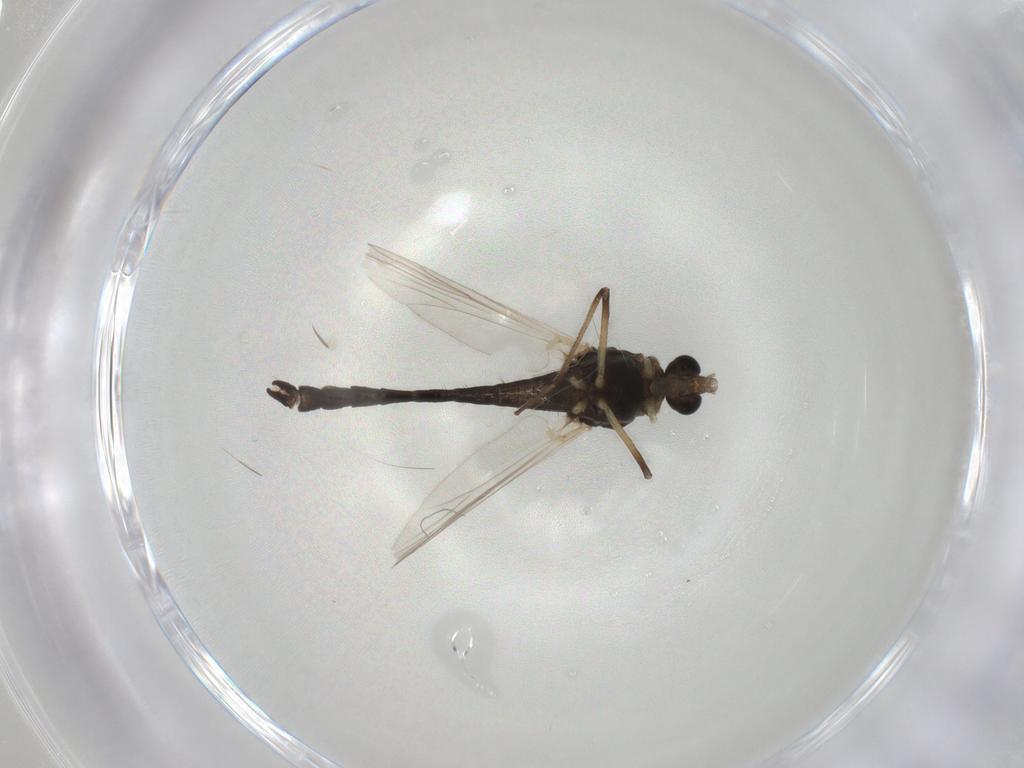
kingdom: Animalia
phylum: Arthropoda
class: Insecta
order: Diptera
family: Chironomidae
